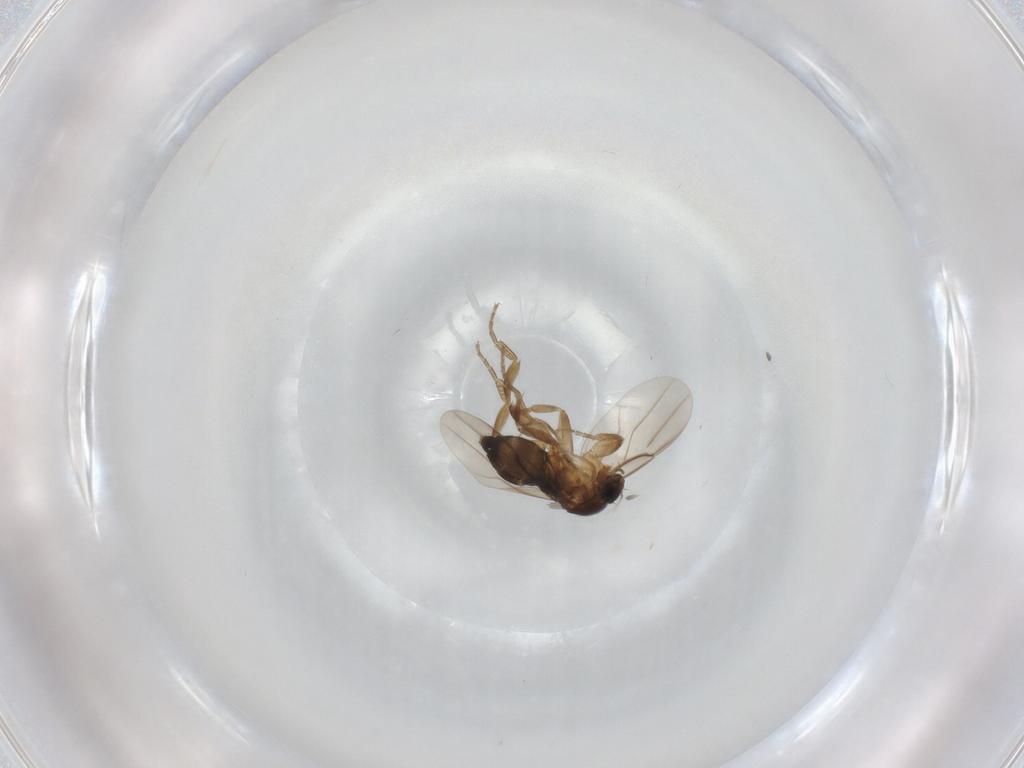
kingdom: Animalia
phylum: Arthropoda
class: Insecta
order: Diptera
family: Phoridae
